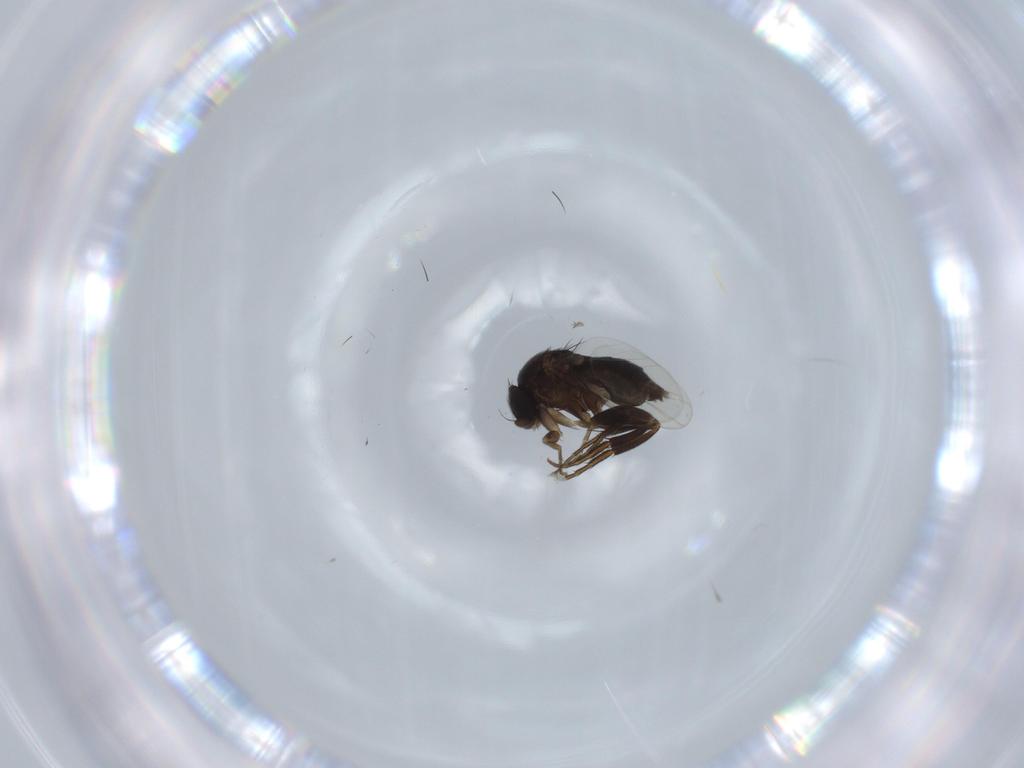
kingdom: Animalia
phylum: Arthropoda
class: Insecta
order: Diptera
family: Phoridae
